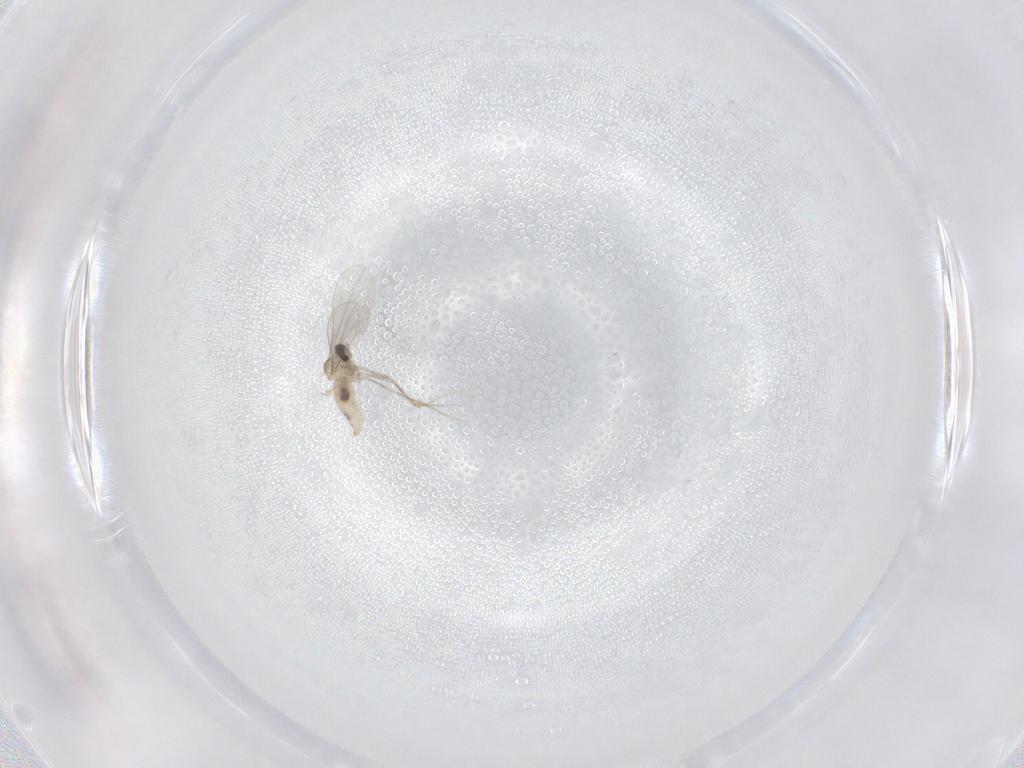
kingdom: Animalia
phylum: Arthropoda
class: Insecta
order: Diptera
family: Cecidomyiidae
